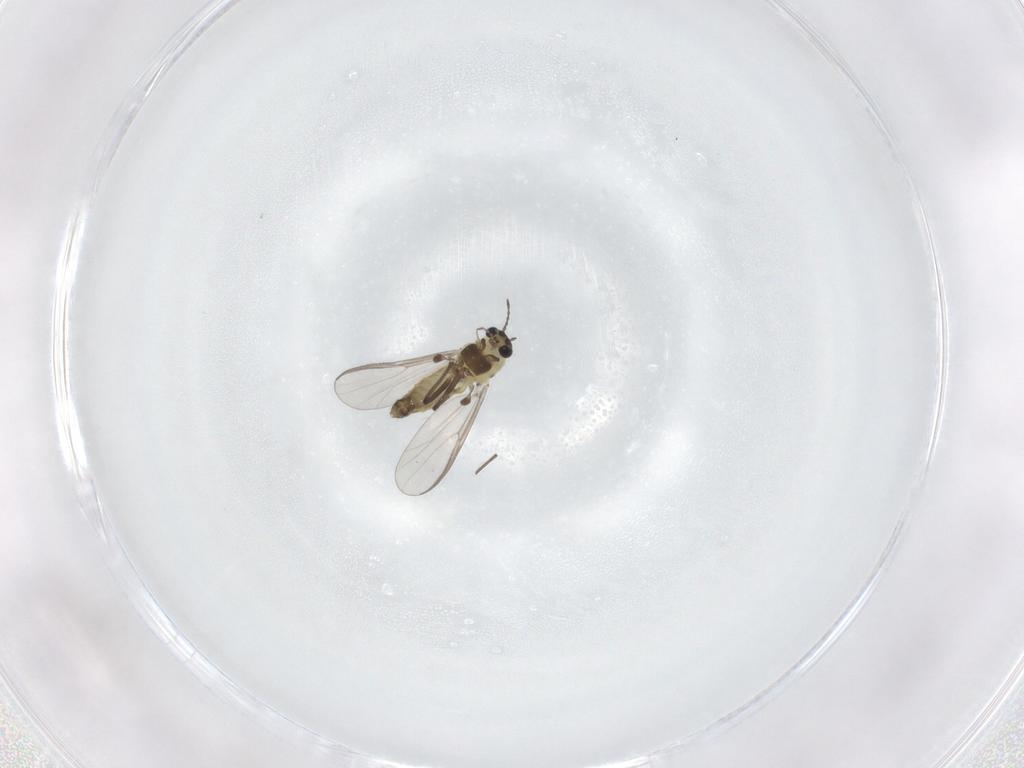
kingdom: Animalia
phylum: Arthropoda
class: Insecta
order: Diptera
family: Chironomidae
